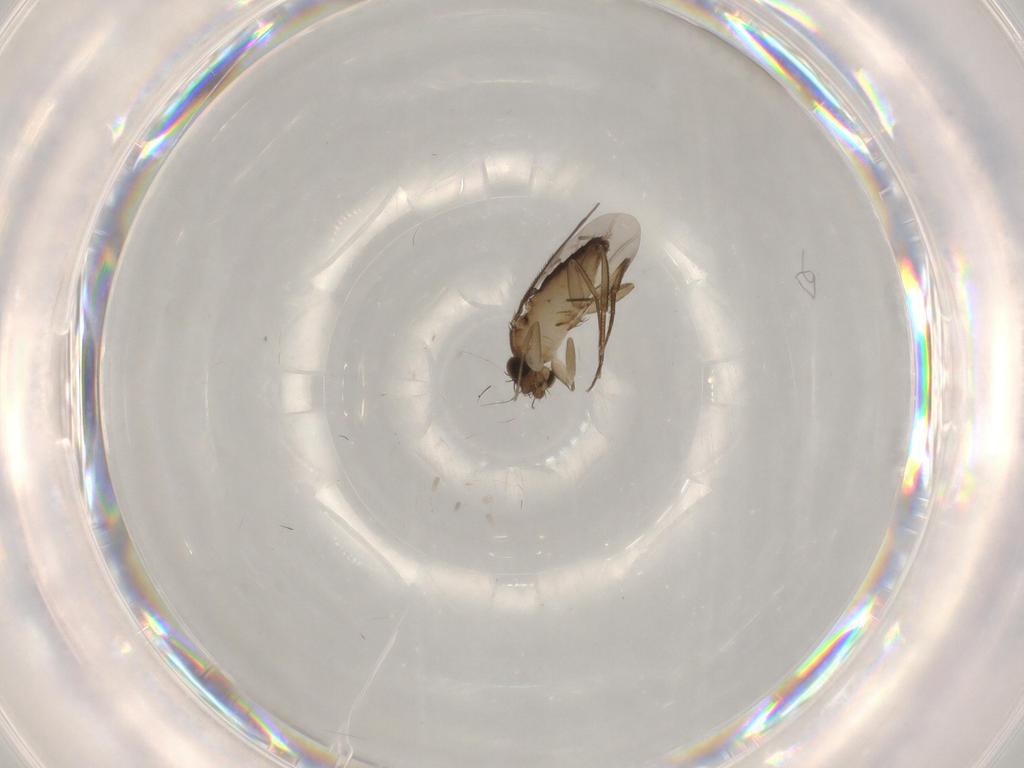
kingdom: Animalia
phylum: Arthropoda
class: Insecta
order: Diptera
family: Phoridae
